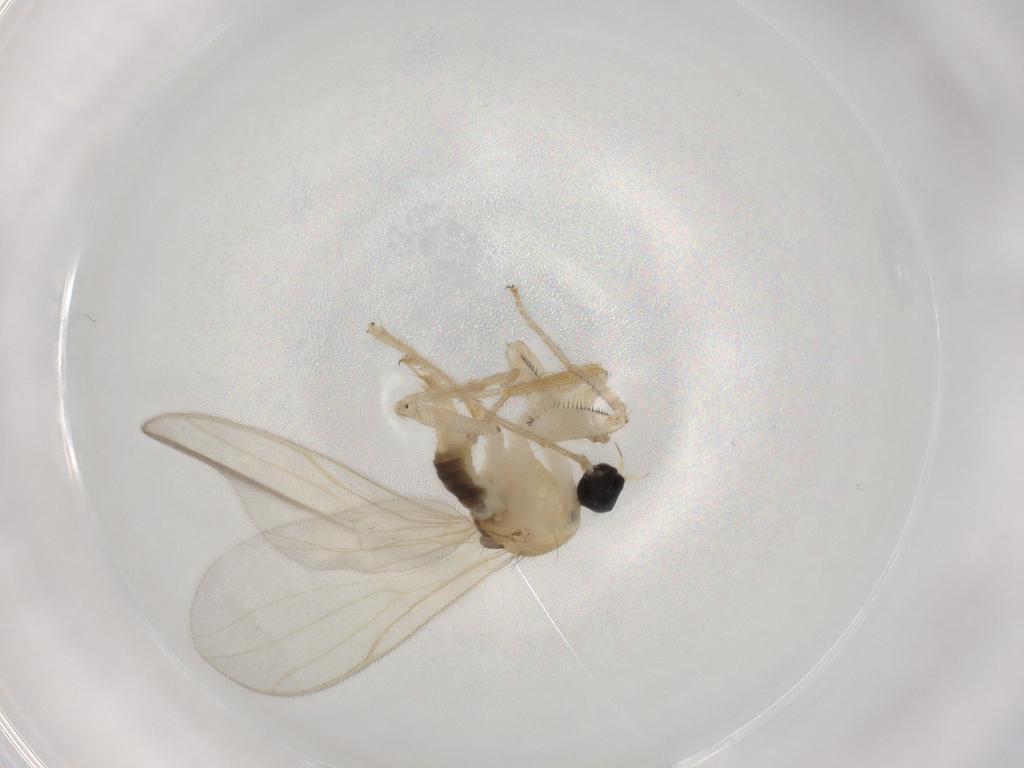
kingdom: Animalia
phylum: Arthropoda
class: Insecta
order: Diptera
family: Hybotidae
